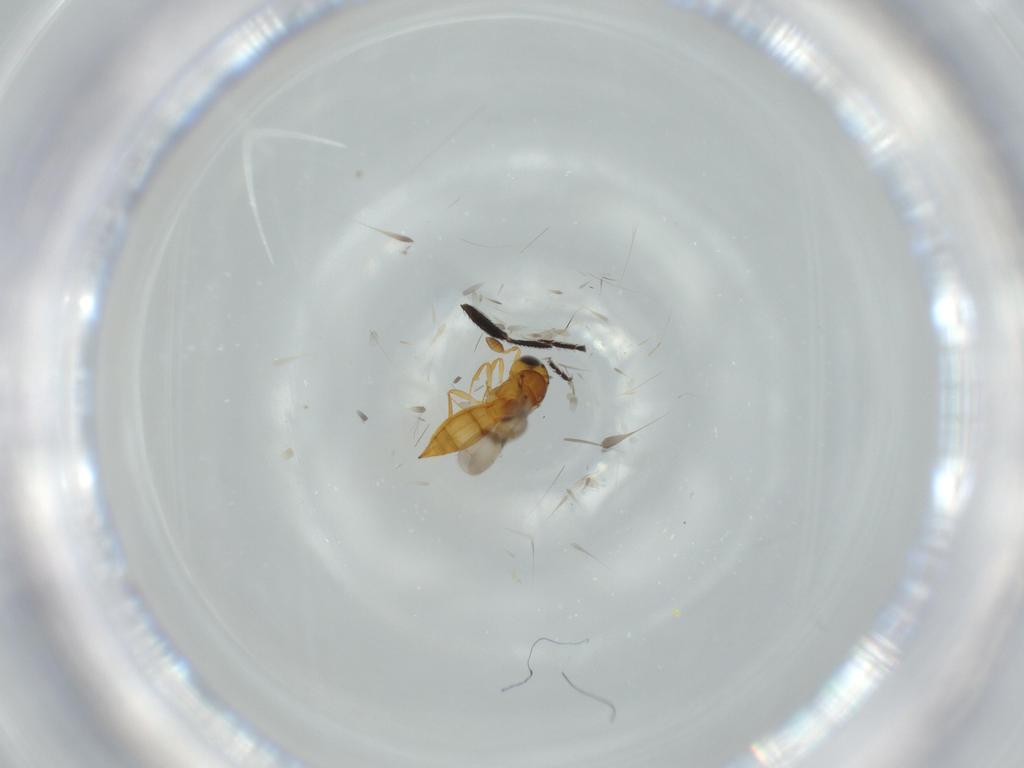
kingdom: Animalia
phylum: Arthropoda
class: Insecta
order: Hymenoptera
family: Scelionidae
